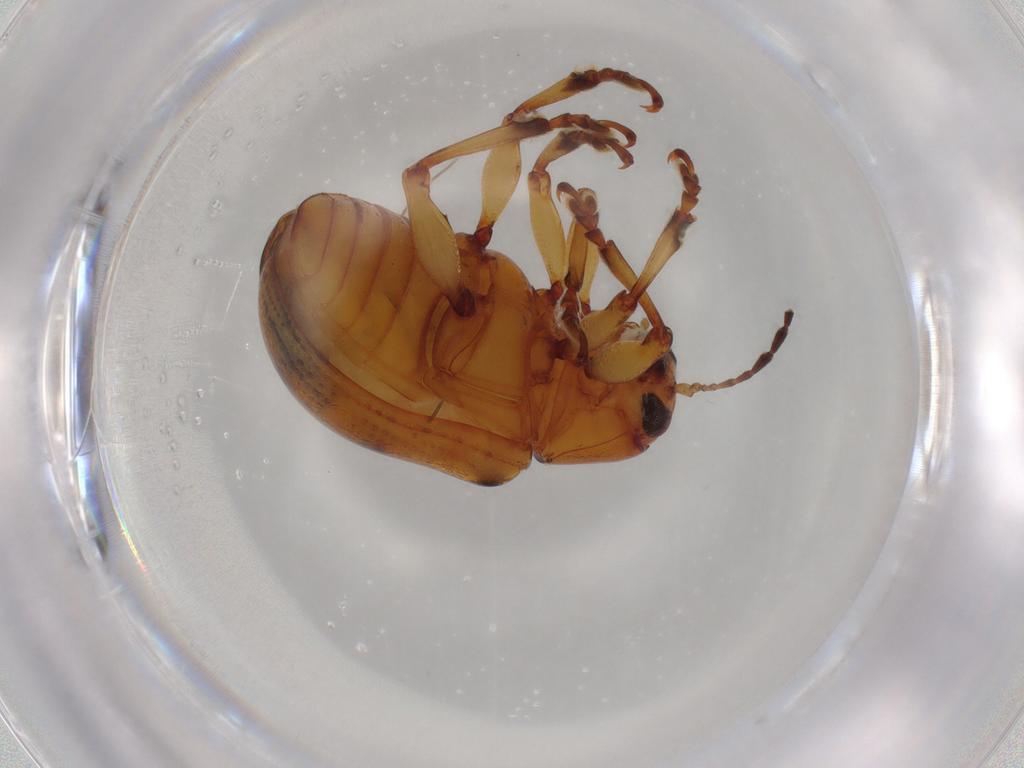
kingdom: Animalia
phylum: Arthropoda
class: Insecta
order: Coleoptera
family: Chrysomelidae
